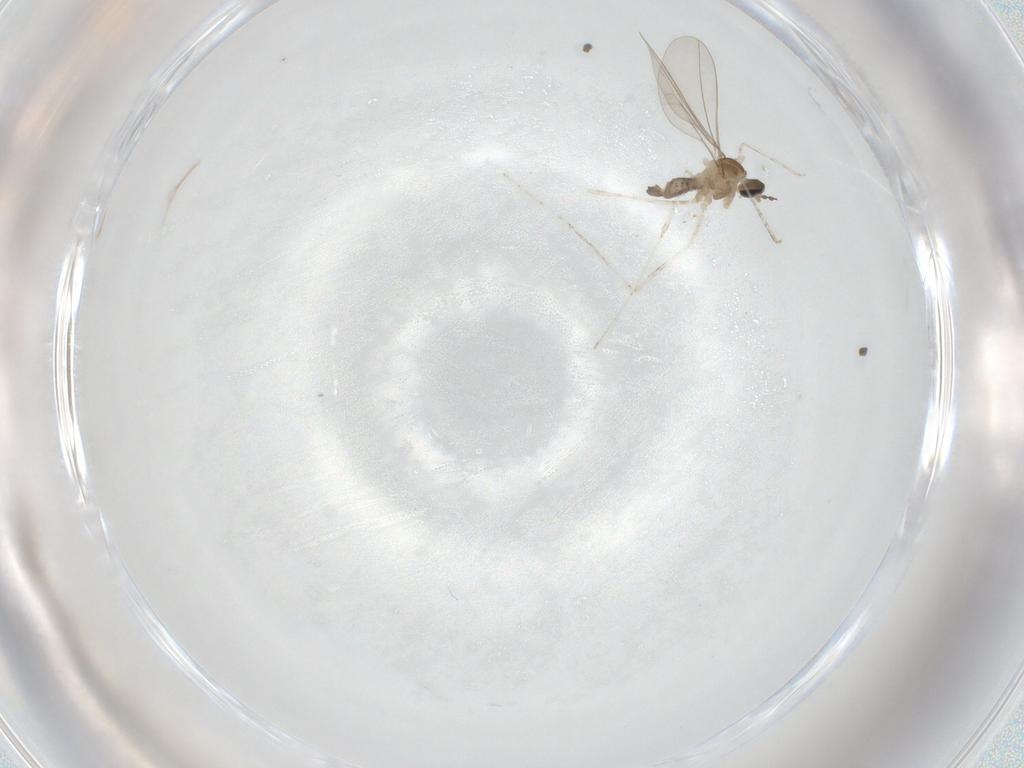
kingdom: Animalia
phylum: Arthropoda
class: Insecta
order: Diptera
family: Cecidomyiidae
